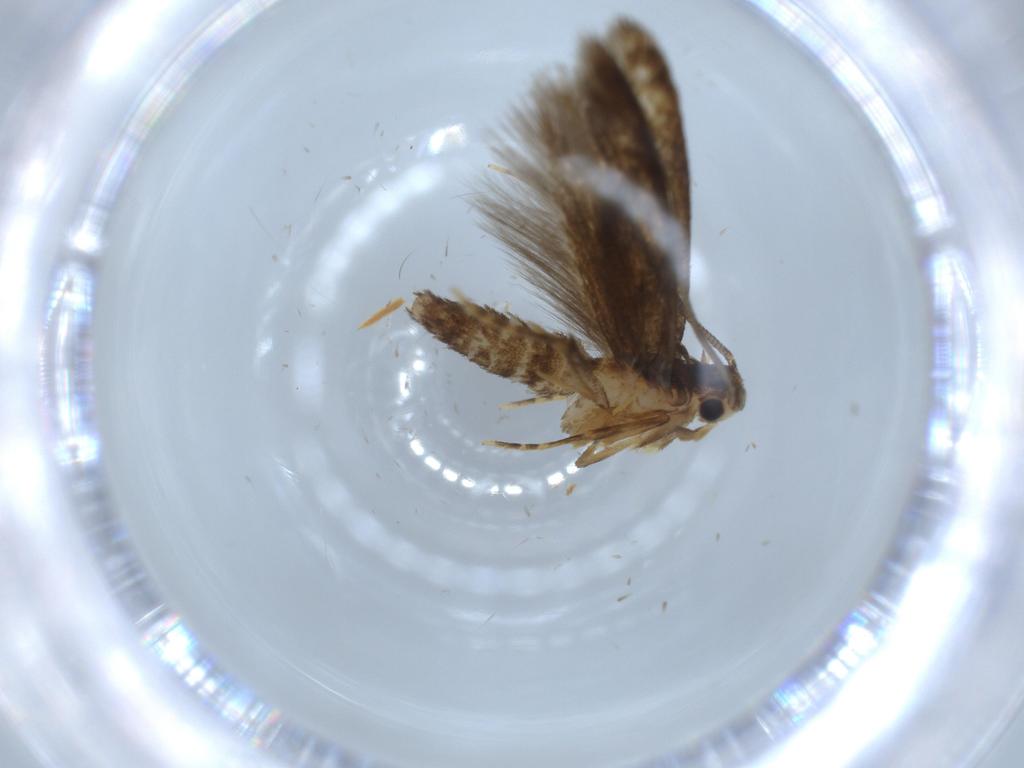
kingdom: Animalia
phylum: Arthropoda
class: Insecta
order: Lepidoptera
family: Tineidae
